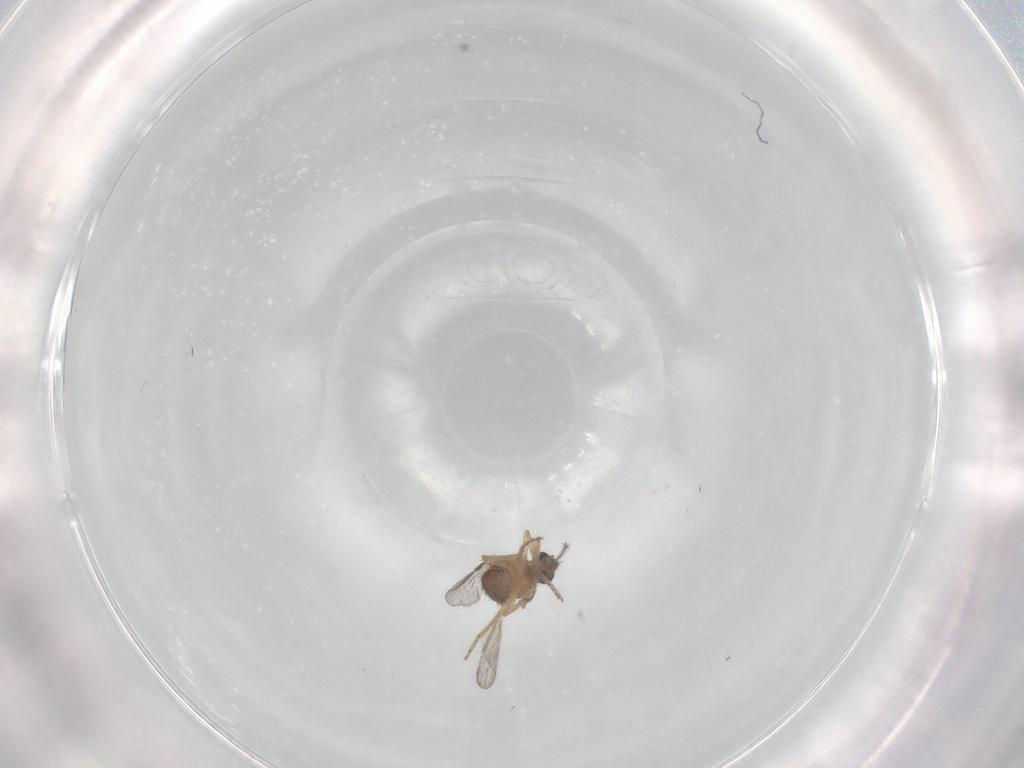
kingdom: Animalia
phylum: Arthropoda
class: Insecta
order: Diptera
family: Ceratopogonidae
